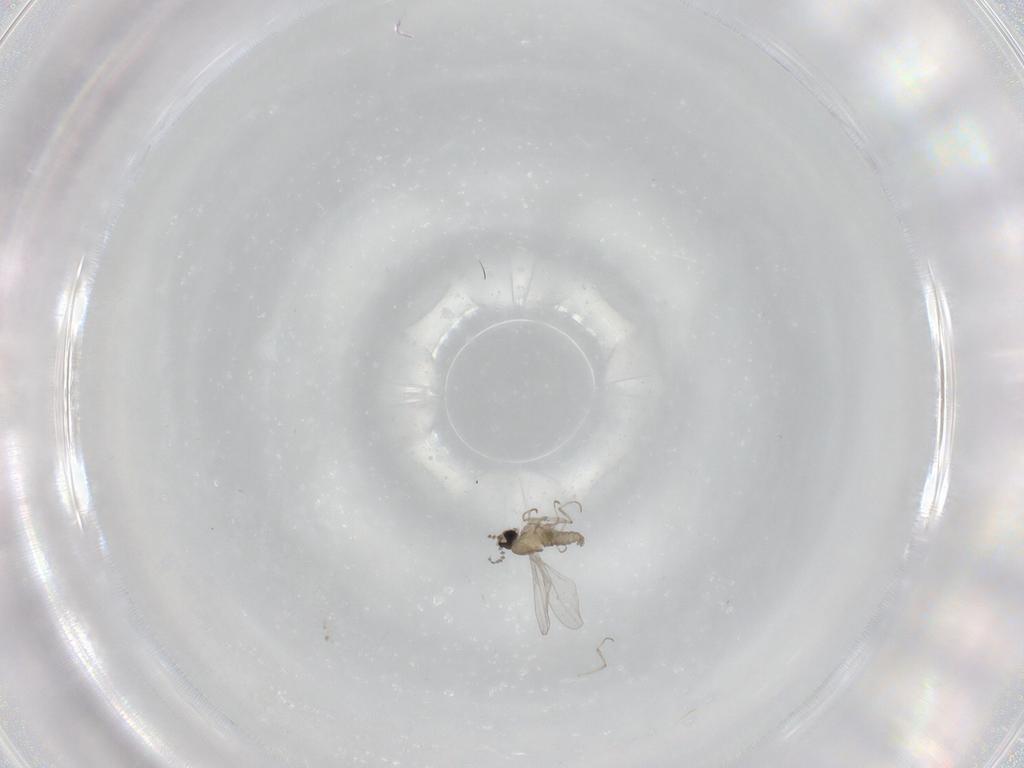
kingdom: Animalia
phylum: Arthropoda
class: Insecta
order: Diptera
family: Cecidomyiidae
